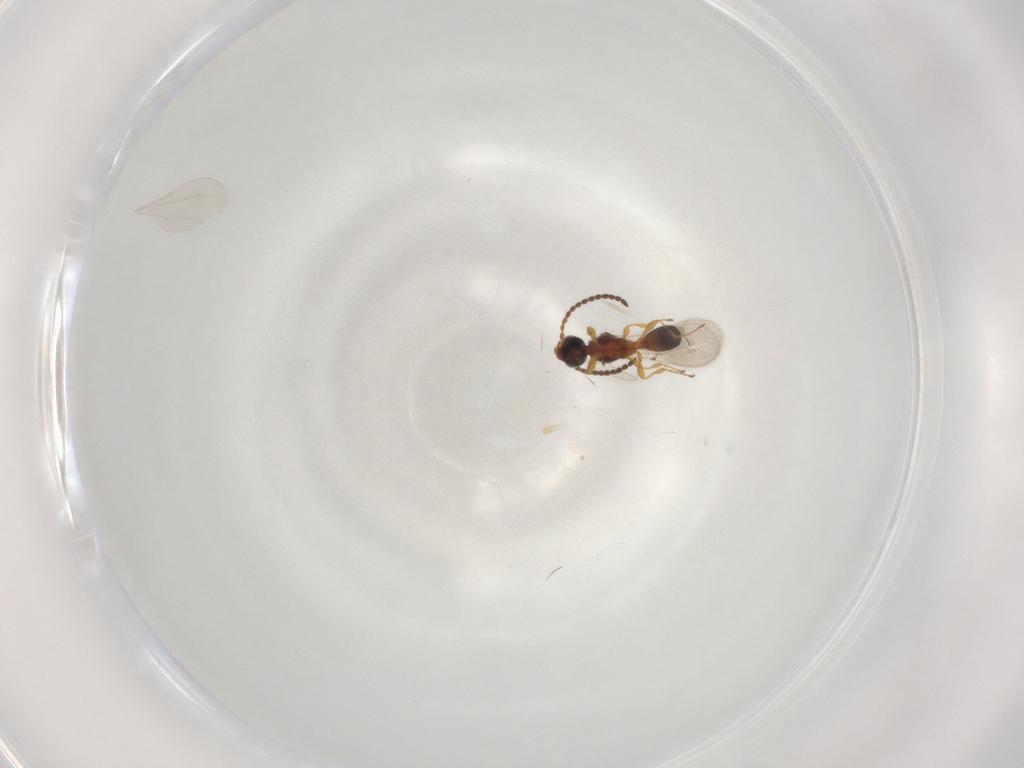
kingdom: Animalia
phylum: Arthropoda
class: Insecta
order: Hymenoptera
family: Diapriidae
